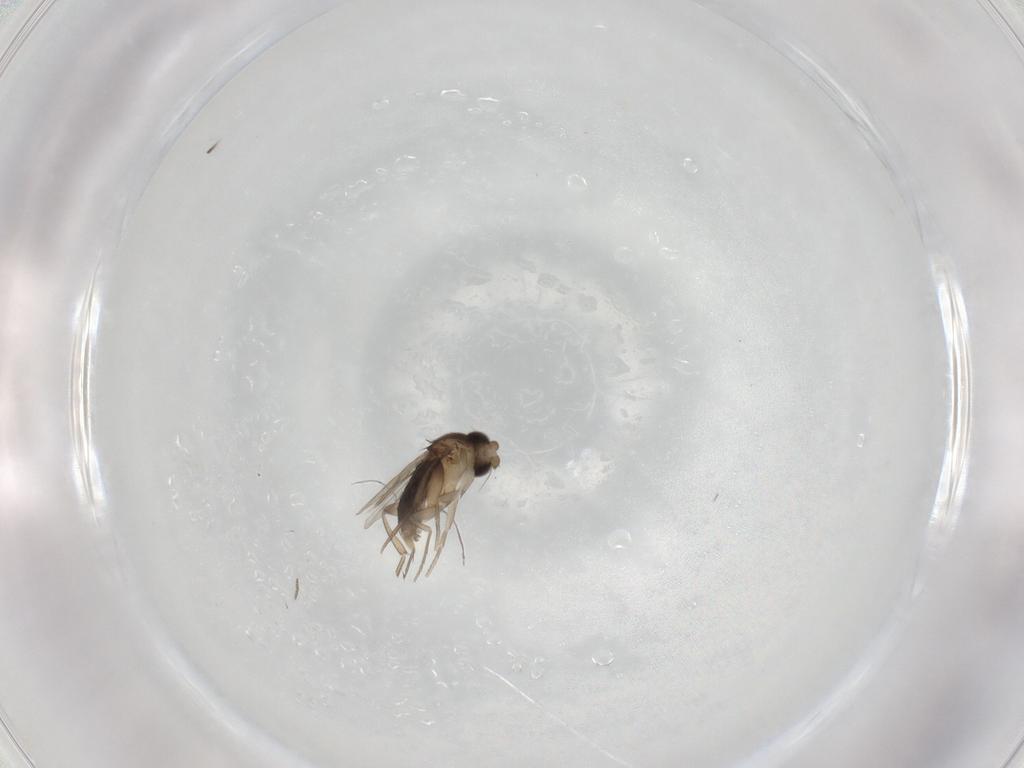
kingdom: Animalia
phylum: Arthropoda
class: Insecta
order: Diptera
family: Phoridae
